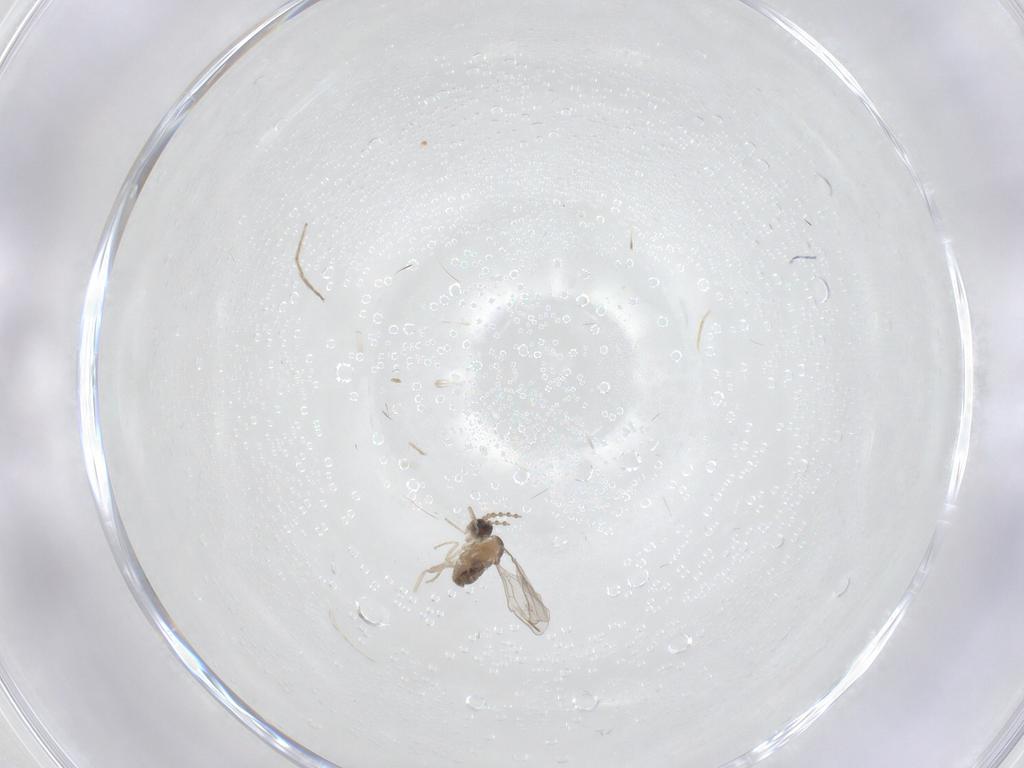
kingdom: Animalia
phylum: Arthropoda
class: Insecta
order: Diptera
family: Cecidomyiidae
